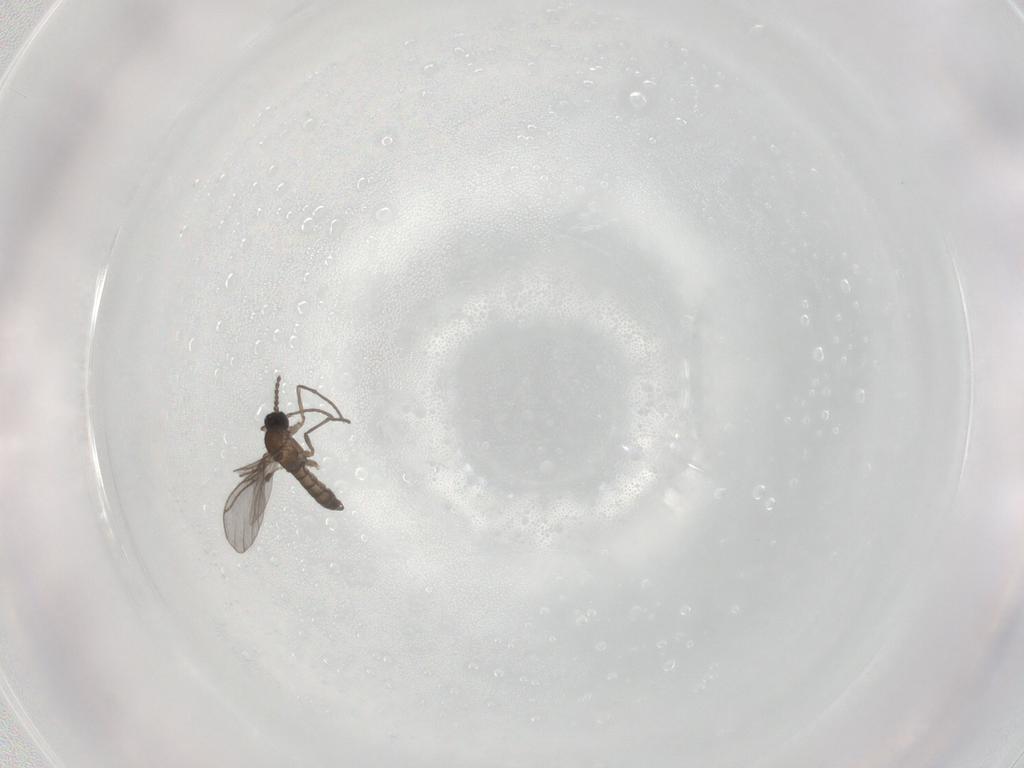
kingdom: Animalia
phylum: Arthropoda
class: Insecta
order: Diptera
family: Sciaridae
